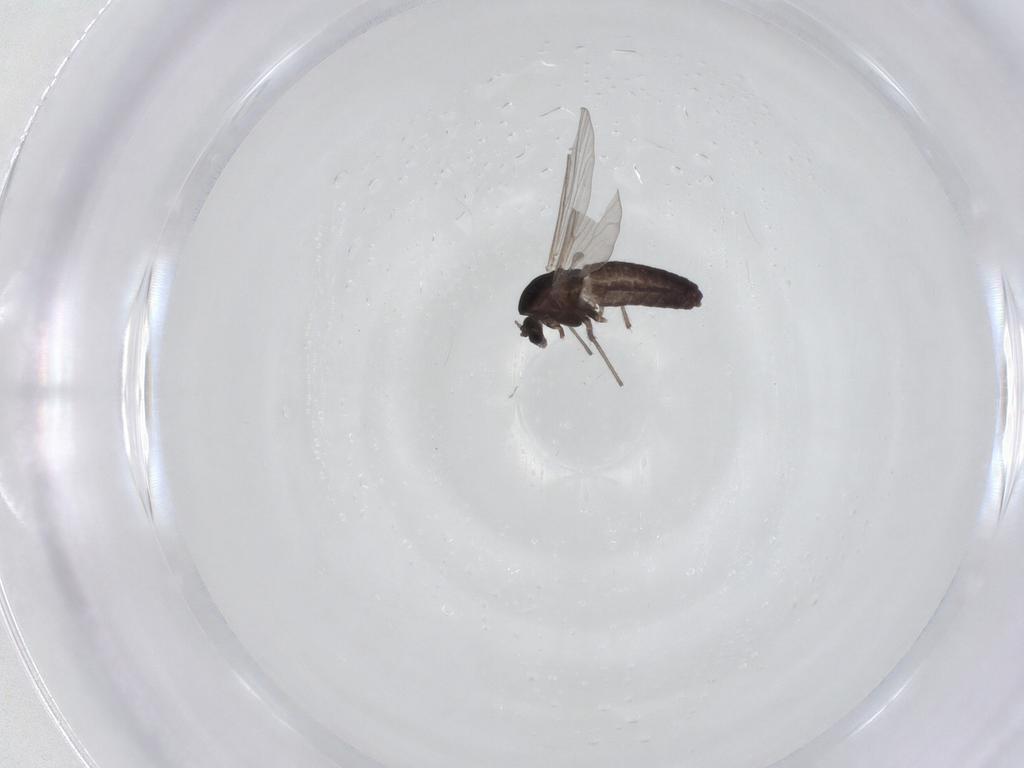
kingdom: Animalia
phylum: Arthropoda
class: Insecta
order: Diptera
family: Chironomidae
